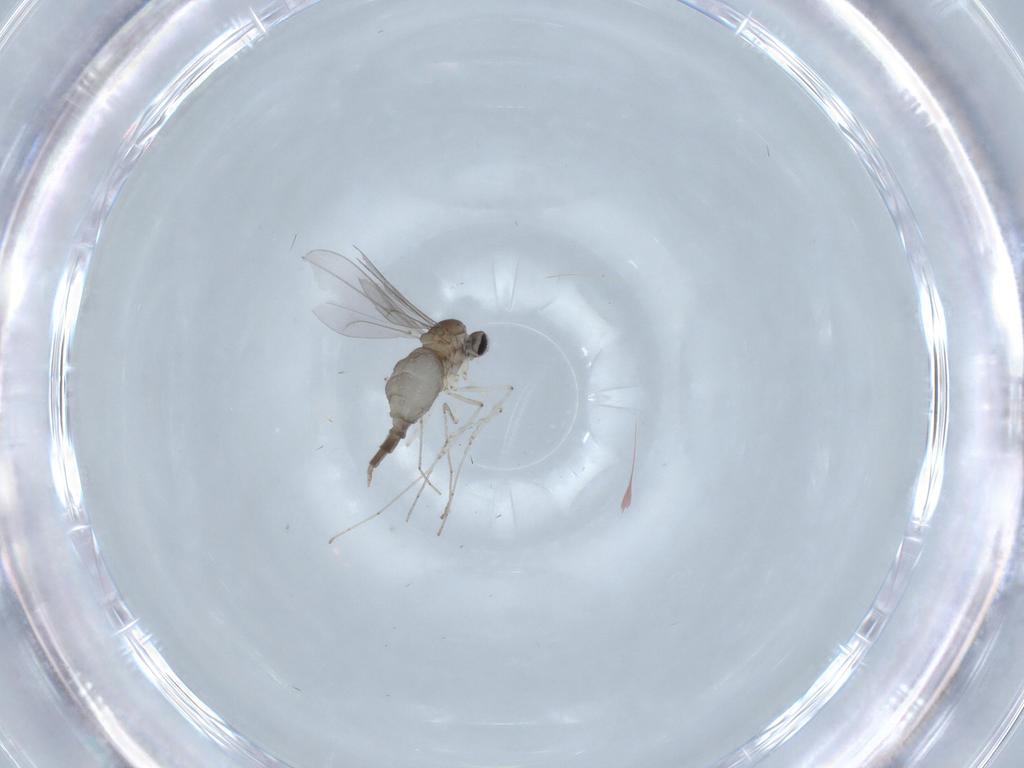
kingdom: Animalia
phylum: Arthropoda
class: Insecta
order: Diptera
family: Cecidomyiidae
